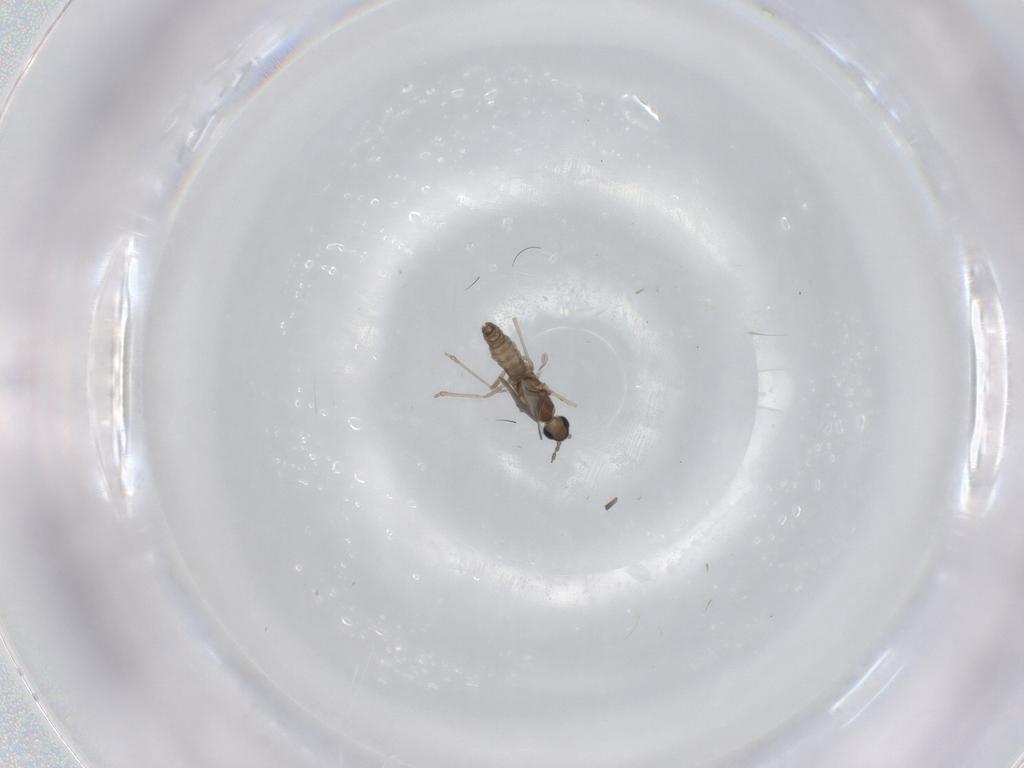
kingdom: Animalia
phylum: Arthropoda
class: Insecta
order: Diptera
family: Cecidomyiidae
